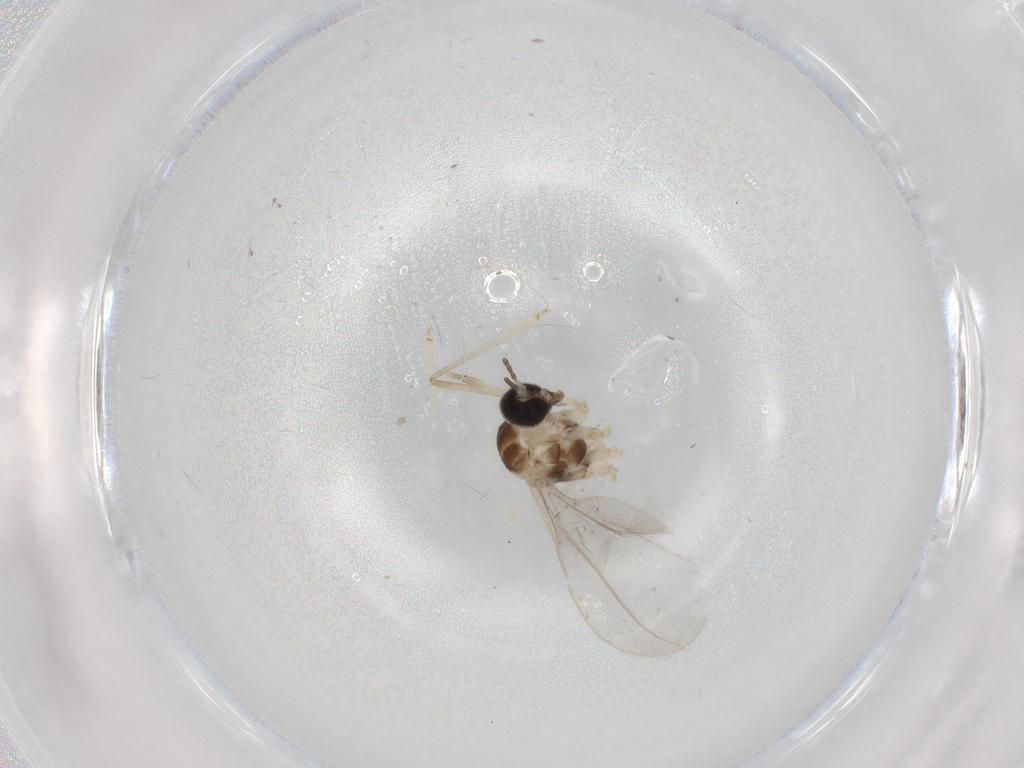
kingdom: Animalia
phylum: Arthropoda
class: Insecta
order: Diptera
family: Cecidomyiidae
